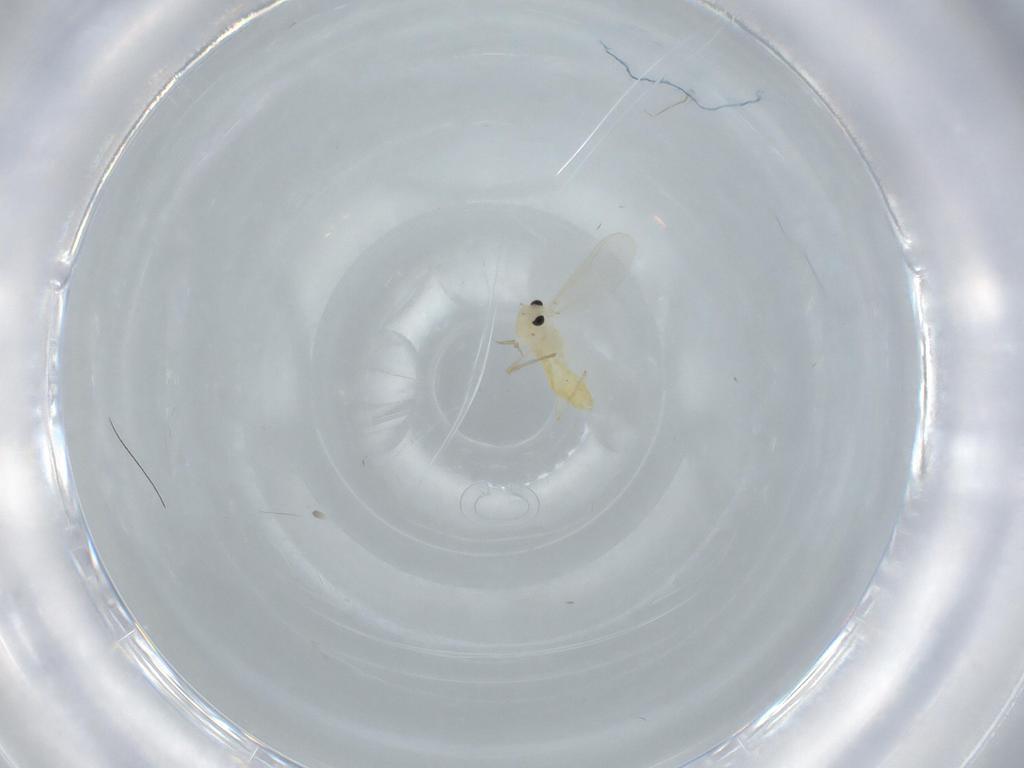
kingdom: Animalia
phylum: Arthropoda
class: Insecta
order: Diptera
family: Chironomidae
